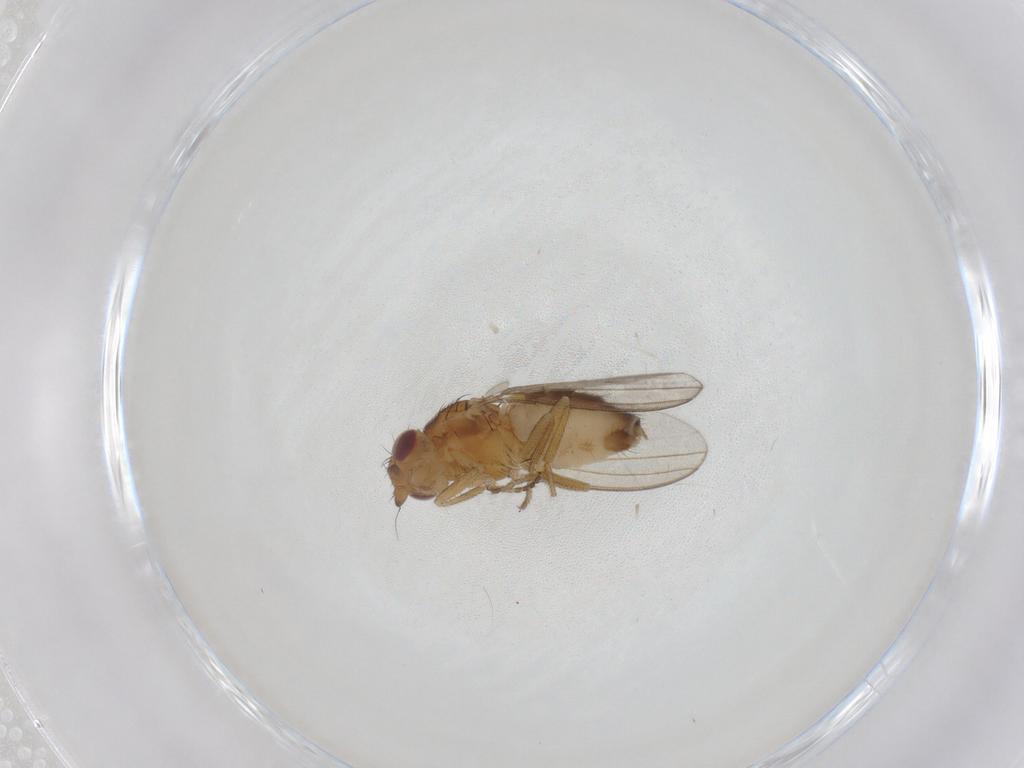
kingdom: Animalia
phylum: Arthropoda
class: Insecta
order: Diptera
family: Milichiidae
